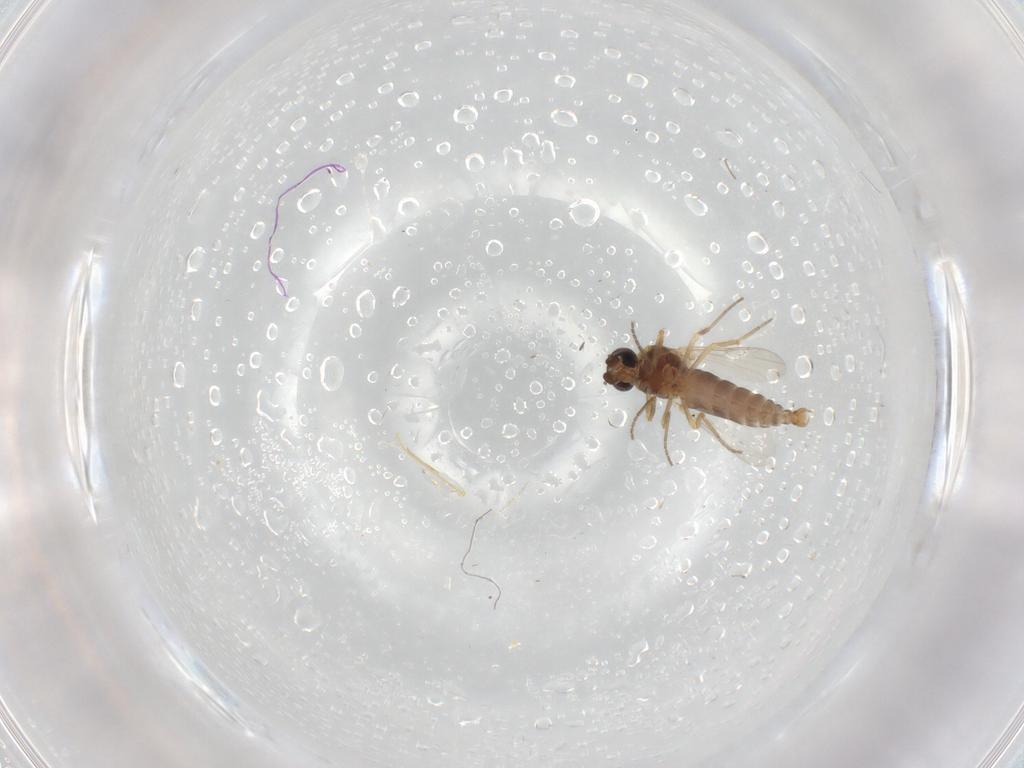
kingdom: Animalia
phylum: Arthropoda
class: Insecta
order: Diptera
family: Ceratopogonidae
